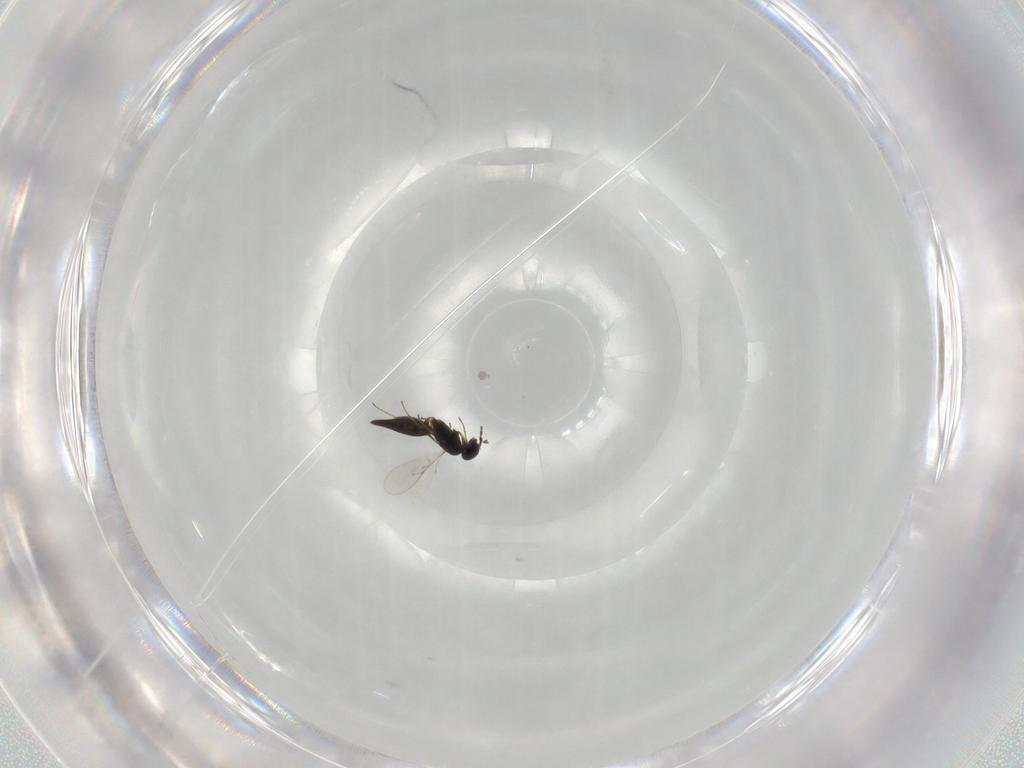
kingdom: Animalia
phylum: Arthropoda
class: Insecta
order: Hymenoptera
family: Scelionidae
